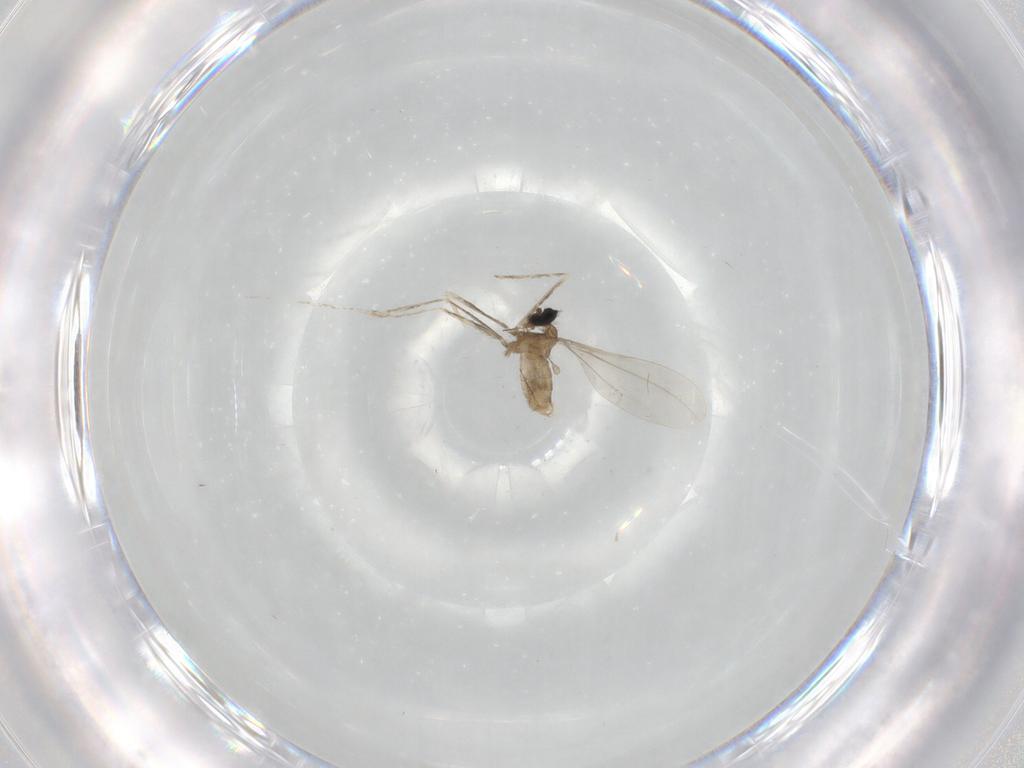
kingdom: Animalia
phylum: Arthropoda
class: Insecta
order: Diptera
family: Cecidomyiidae
